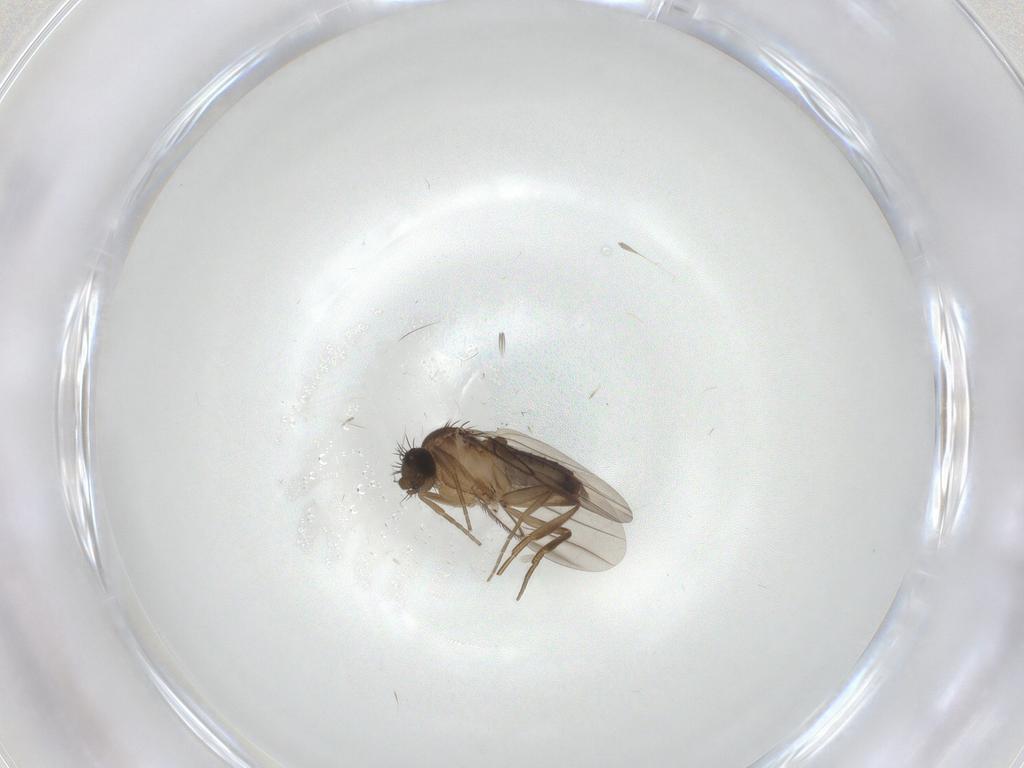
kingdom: Animalia
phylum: Arthropoda
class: Insecta
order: Diptera
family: Phoridae
